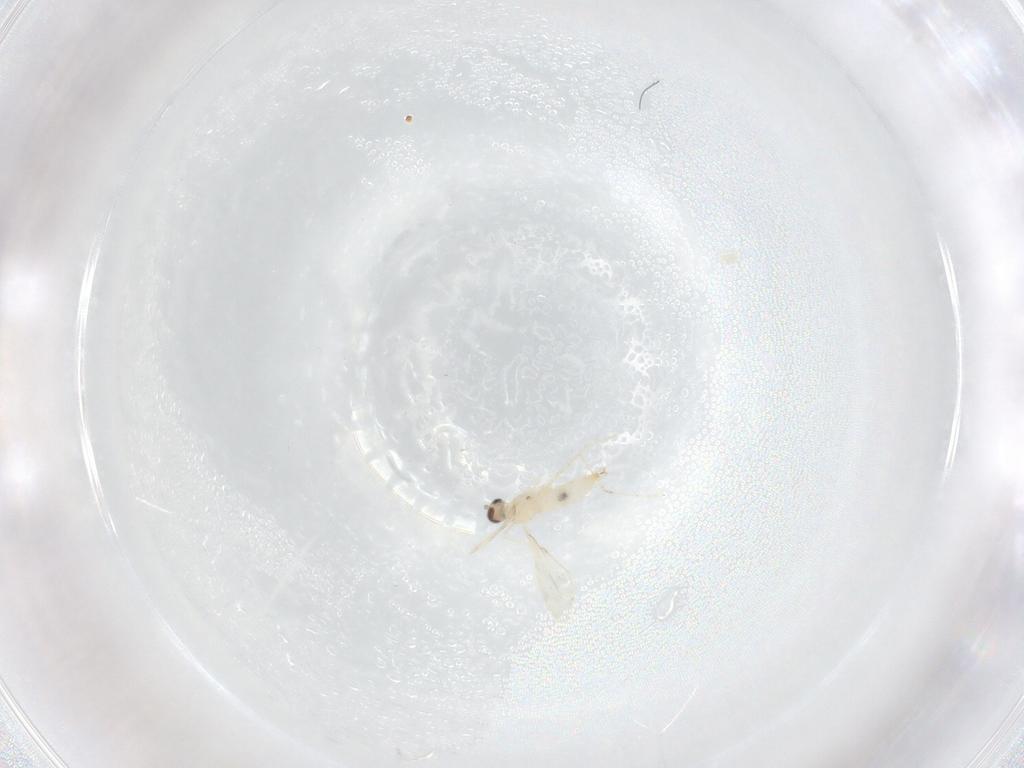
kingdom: Animalia
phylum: Arthropoda
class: Insecta
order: Diptera
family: Cecidomyiidae
